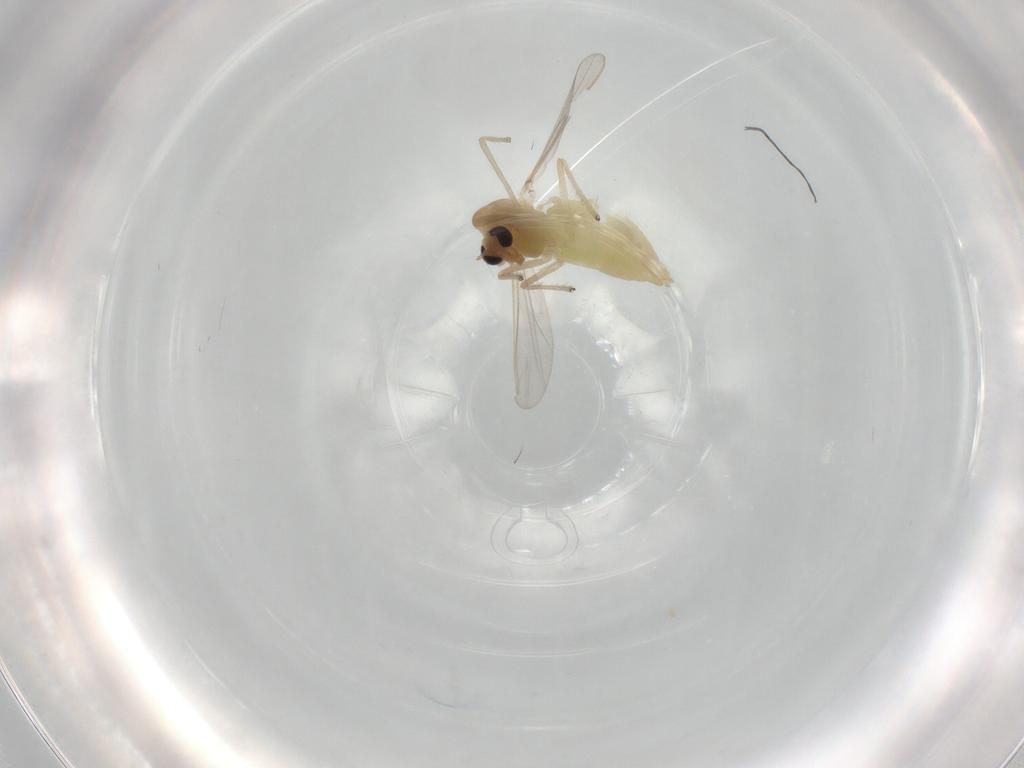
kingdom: Animalia
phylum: Arthropoda
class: Insecta
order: Diptera
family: Chironomidae
